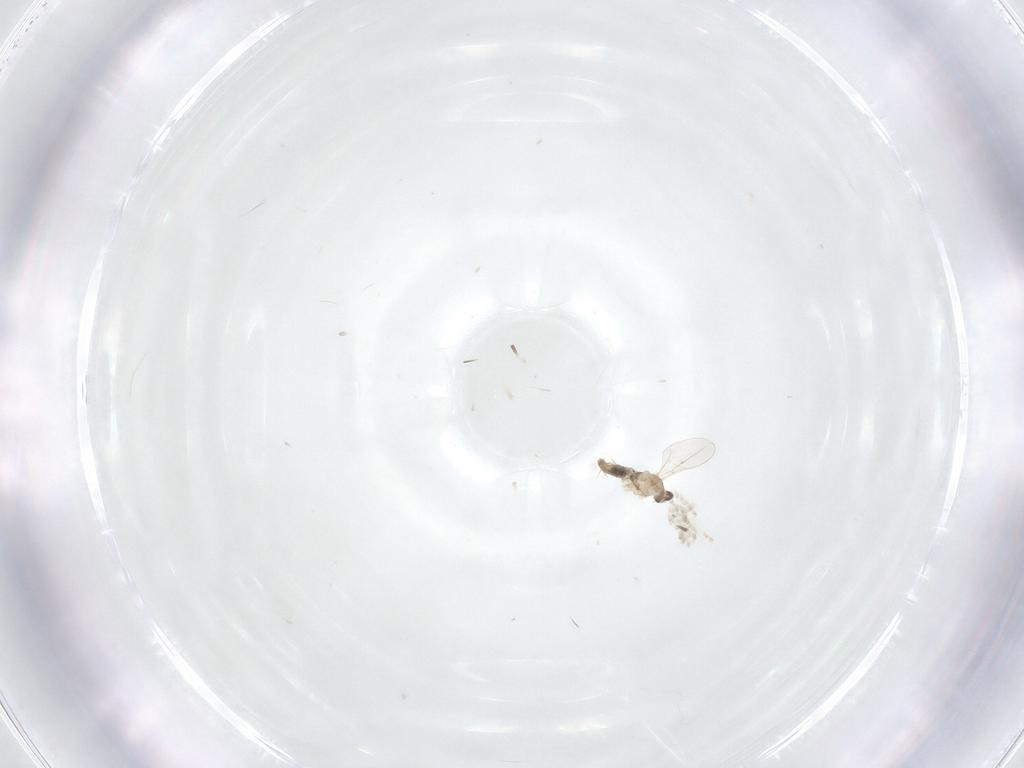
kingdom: Animalia
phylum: Arthropoda
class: Insecta
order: Diptera
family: Cecidomyiidae
